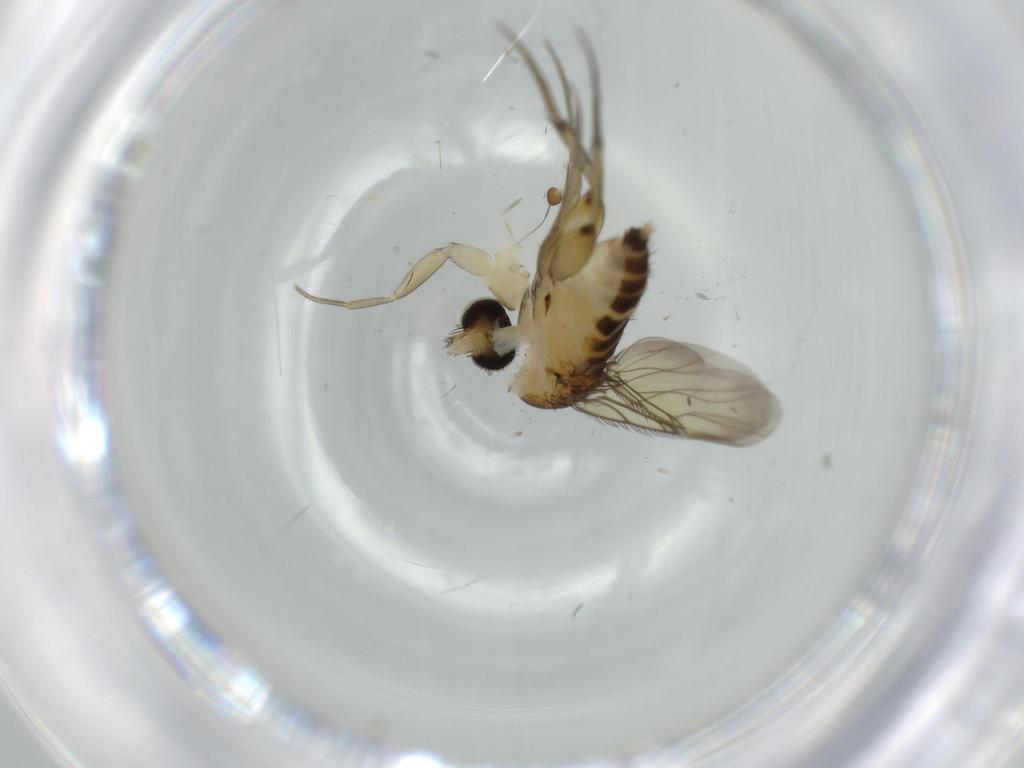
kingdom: Animalia
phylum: Arthropoda
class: Insecta
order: Diptera
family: Phoridae
